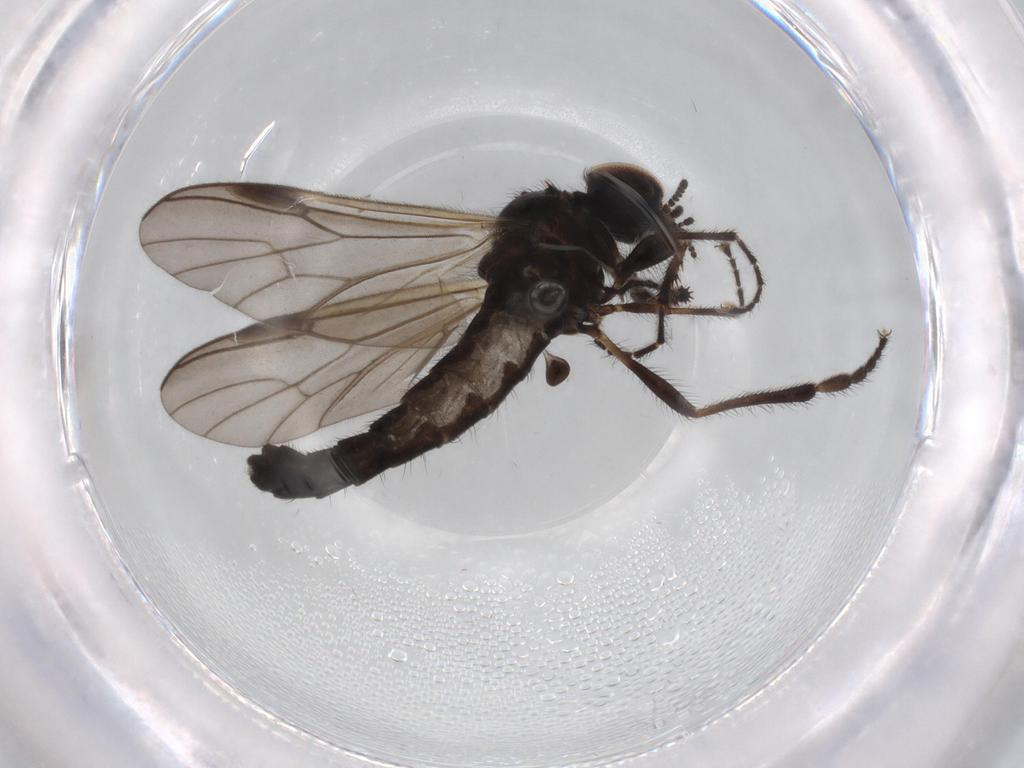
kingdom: Animalia
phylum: Arthropoda
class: Insecta
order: Diptera
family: Bibionidae
